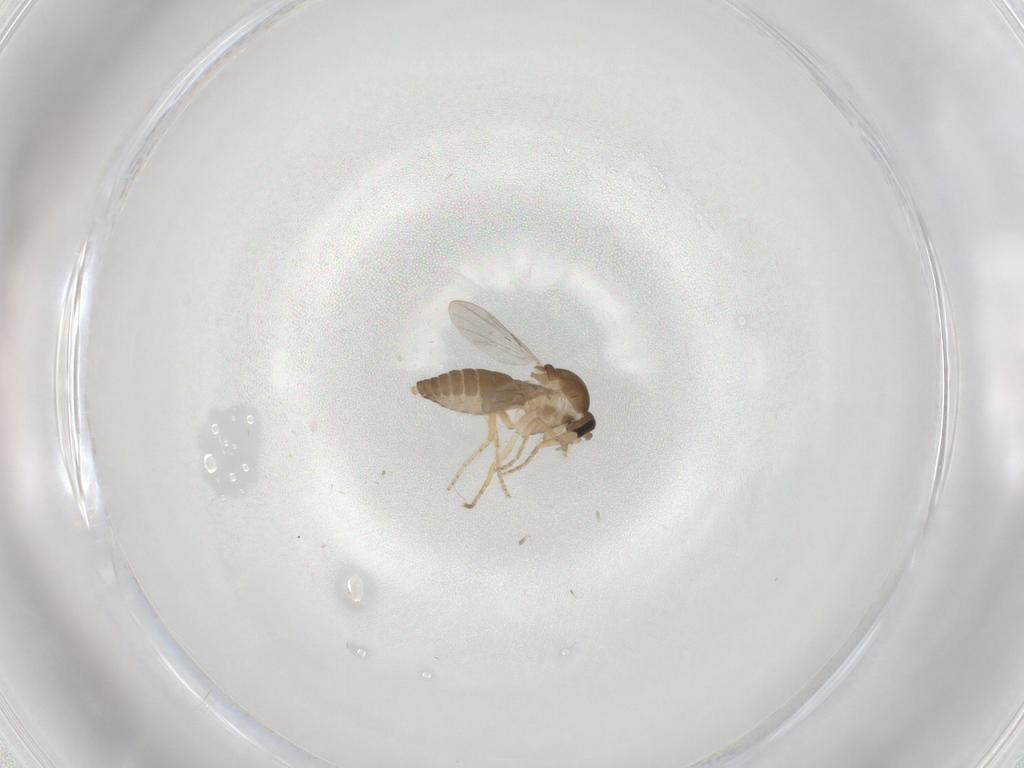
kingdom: Animalia
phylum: Arthropoda
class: Insecta
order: Diptera
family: Ceratopogonidae
